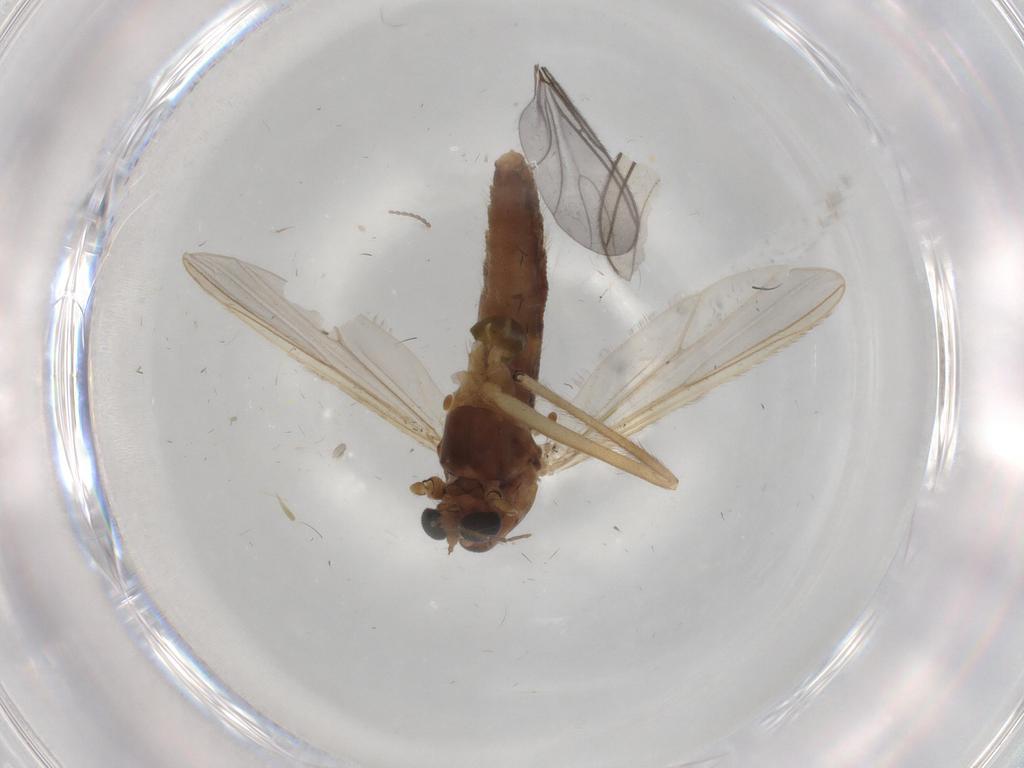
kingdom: Animalia
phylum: Arthropoda
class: Insecta
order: Diptera
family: Chironomidae
